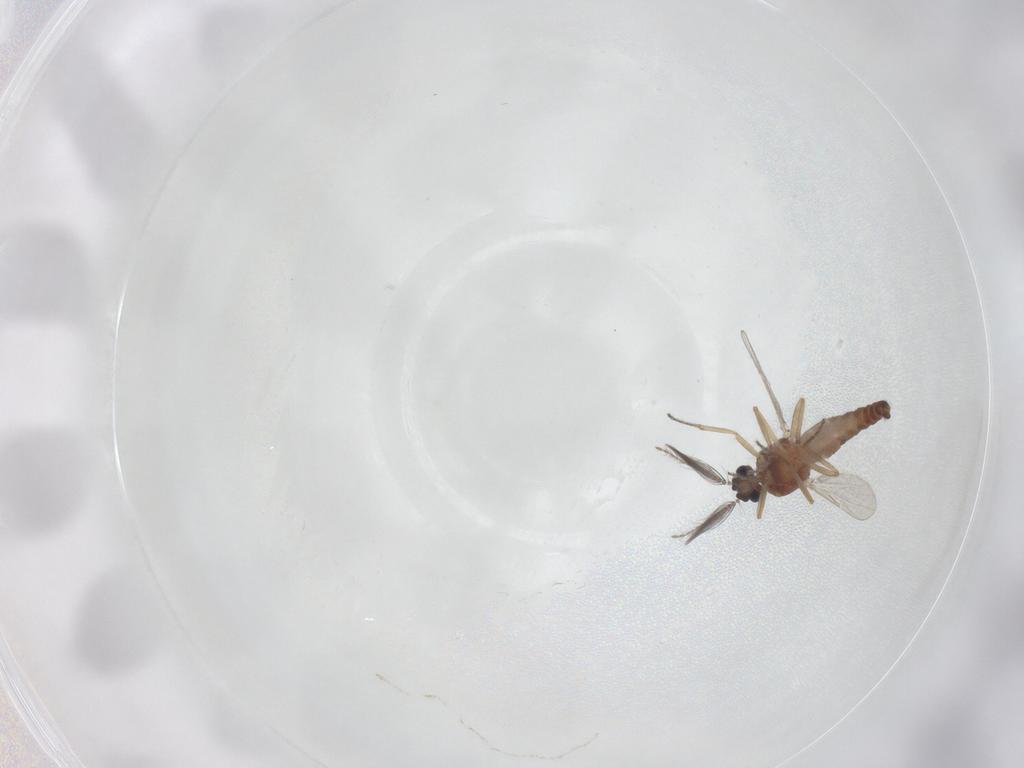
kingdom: Animalia
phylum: Arthropoda
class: Insecta
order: Diptera
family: Ceratopogonidae
